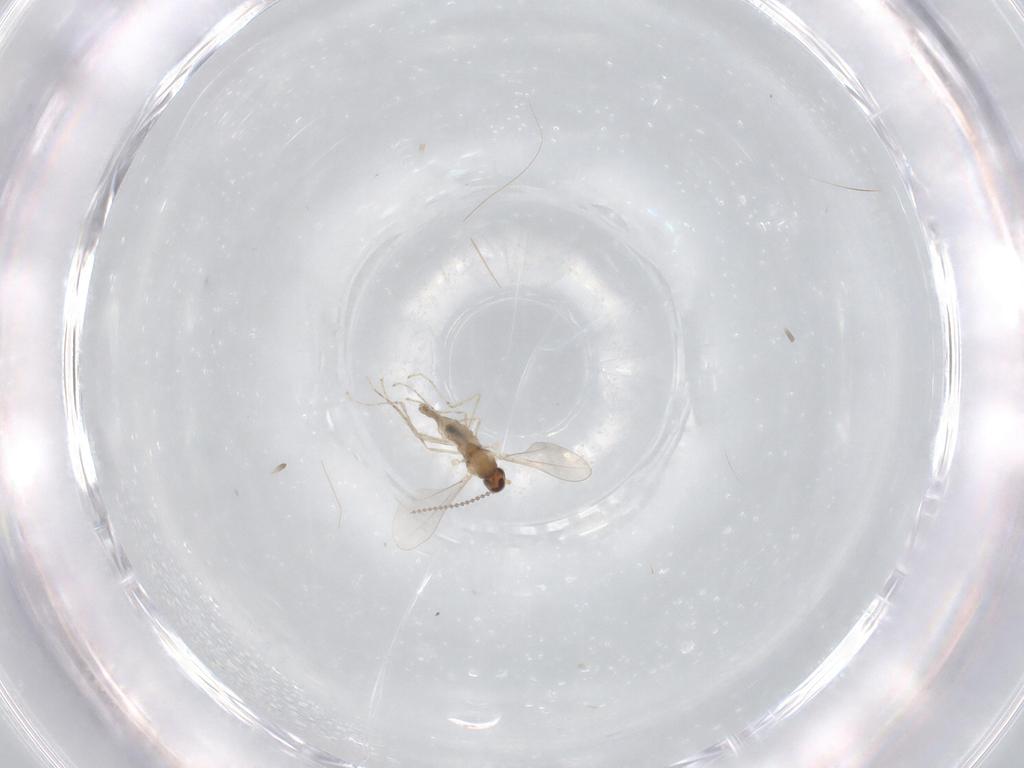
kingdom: Animalia
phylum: Arthropoda
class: Insecta
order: Diptera
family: Cecidomyiidae
